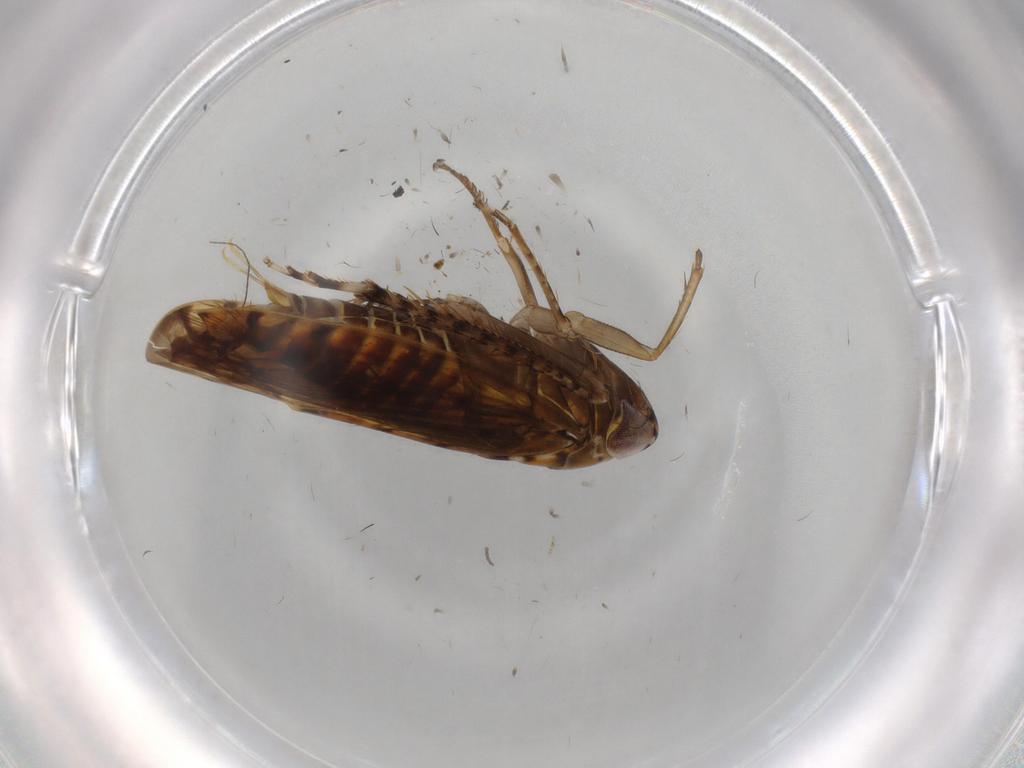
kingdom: Animalia
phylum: Arthropoda
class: Insecta
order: Hemiptera
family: Cicadellidae
